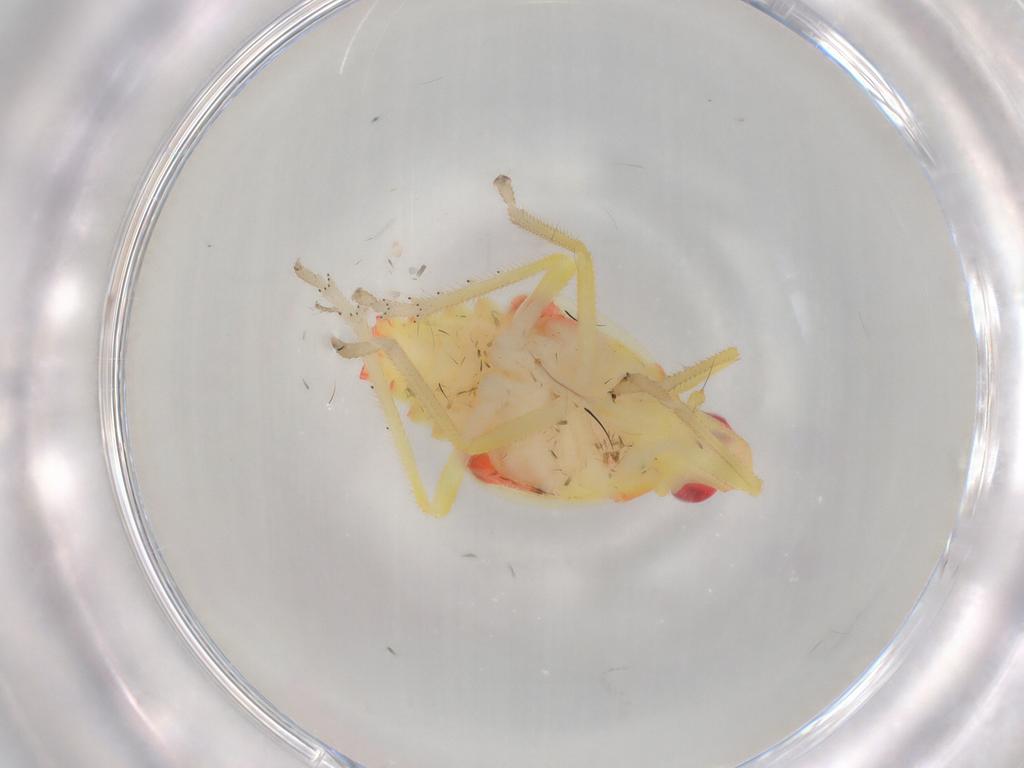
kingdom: Animalia
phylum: Arthropoda
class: Insecta
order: Hemiptera
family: Tropiduchidae
